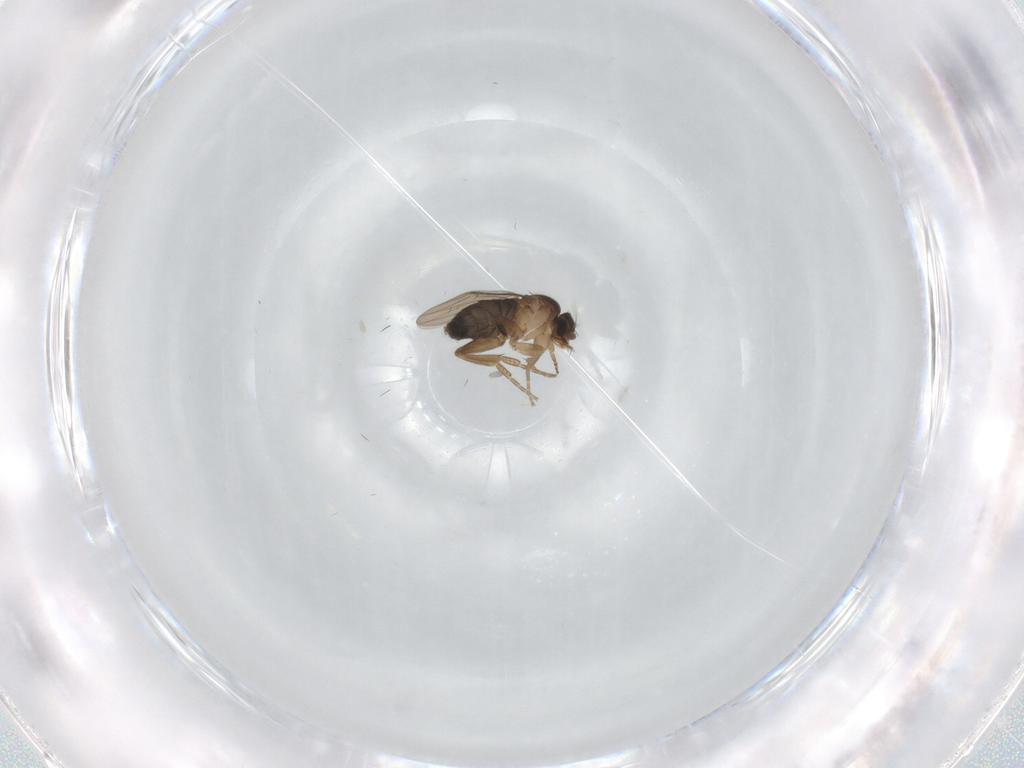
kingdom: Animalia
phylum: Arthropoda
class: Insecta
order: Diptera
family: Cecidomyiidae
